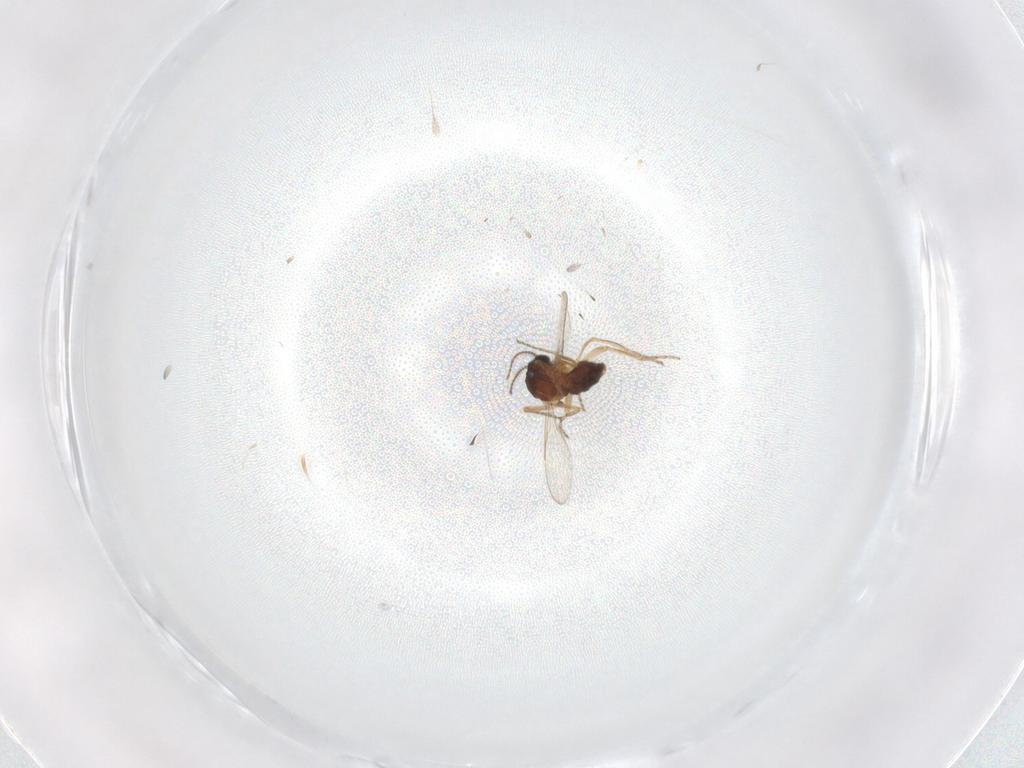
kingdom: Animalia
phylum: Arthropoda
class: Insecta
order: Diptera
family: Ceratopogonidae
